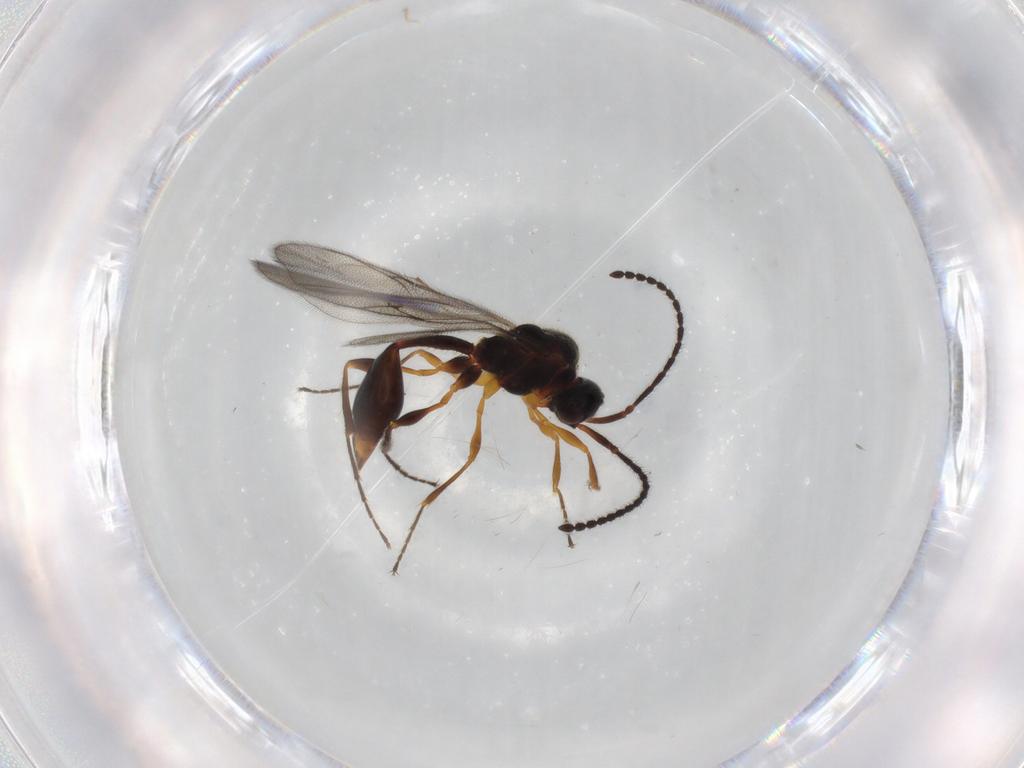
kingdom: Animalia
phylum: Arthropoda
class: Insecta
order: Hymenoptera
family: Diapriidae
